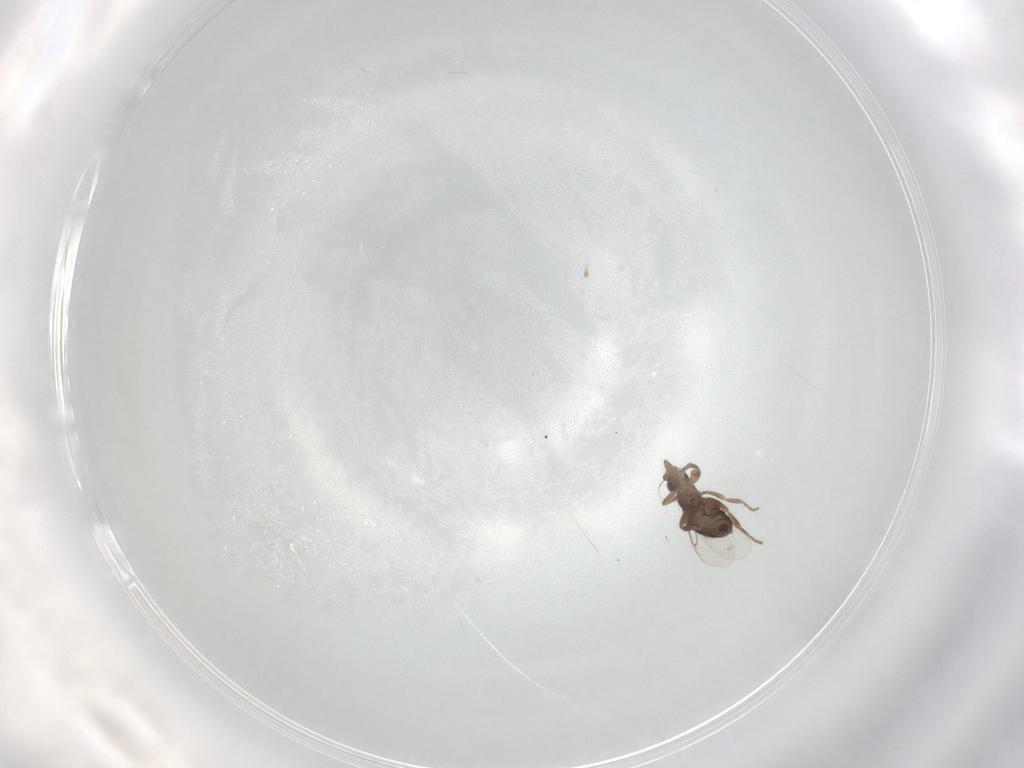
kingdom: Animalia
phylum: Arthropoda
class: Insecta
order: Diptera
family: Phoridae
